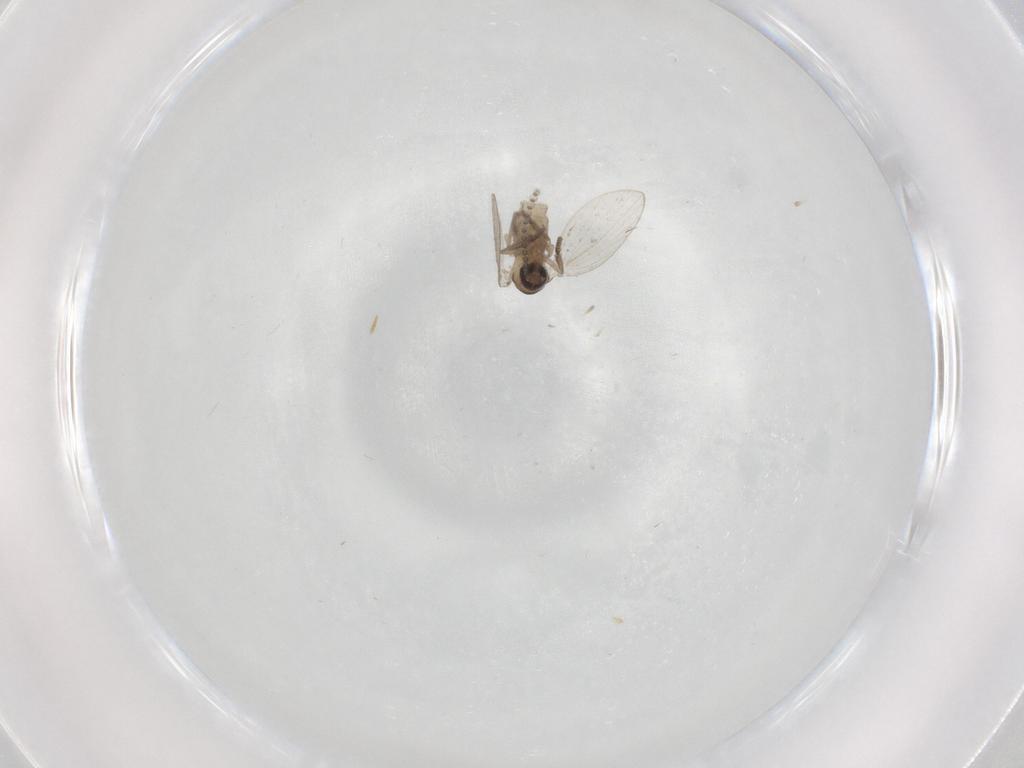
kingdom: Animalia
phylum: Arthropoda
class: Insecta
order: Diptera
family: Psychodidae
